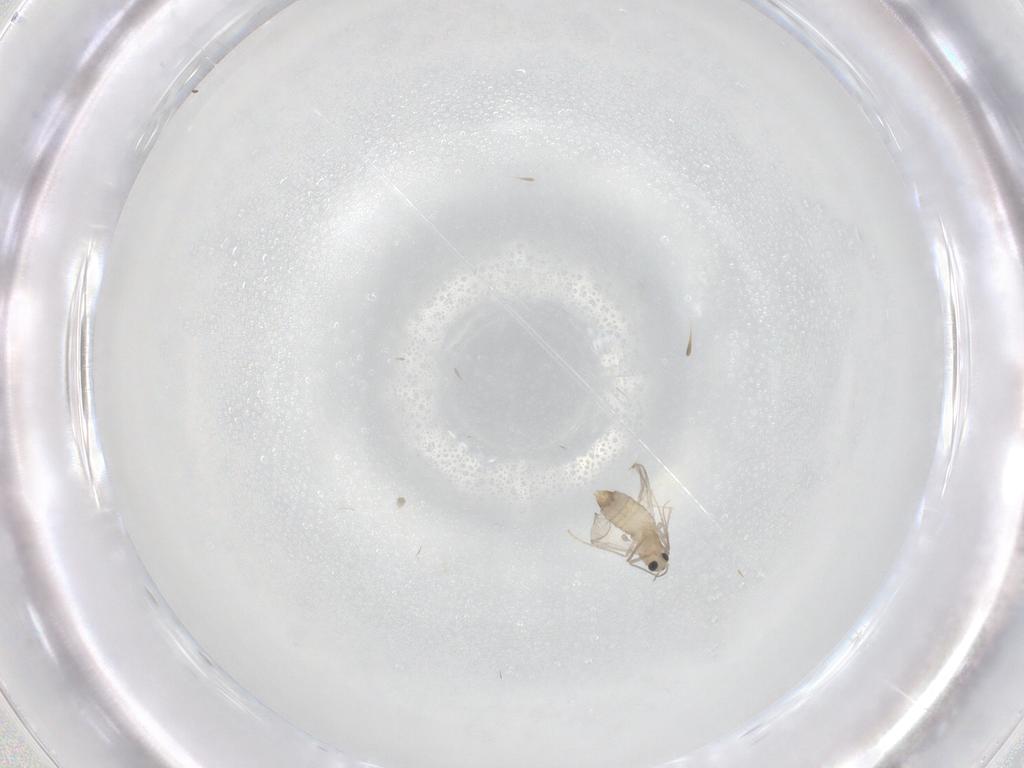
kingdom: Animalia
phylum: Arthropoda
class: Insecta
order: Diptera
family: Chironomidae
